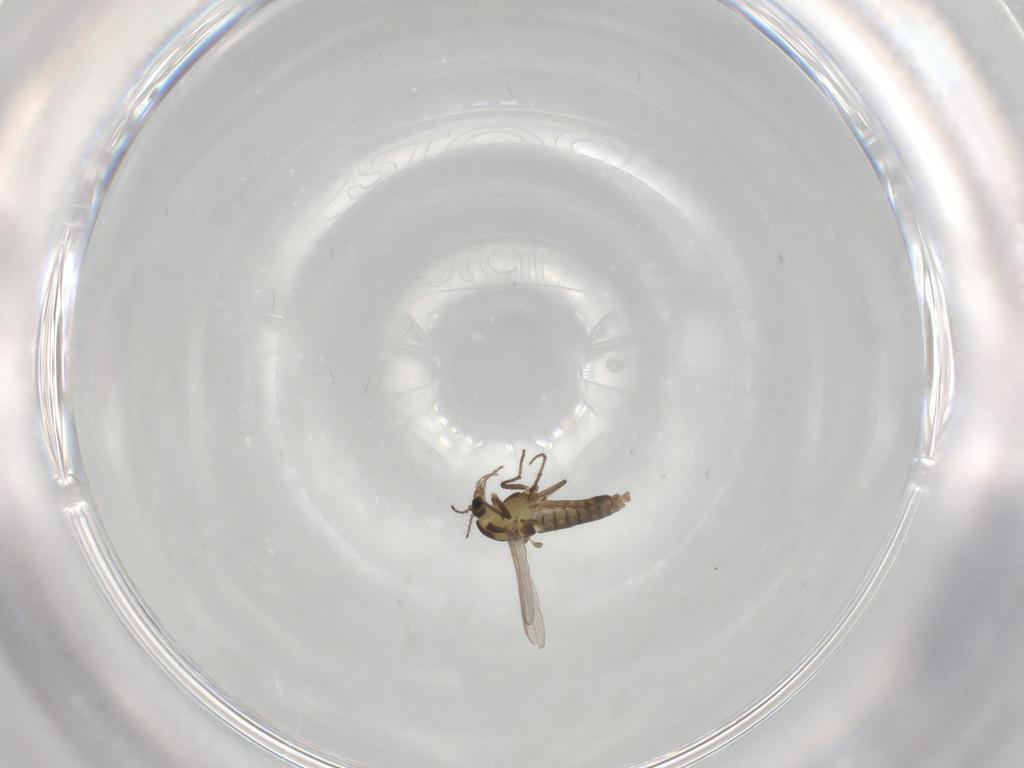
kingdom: Animalia
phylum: Arthropoda
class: Insecta
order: Diptera
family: Chironomidae
